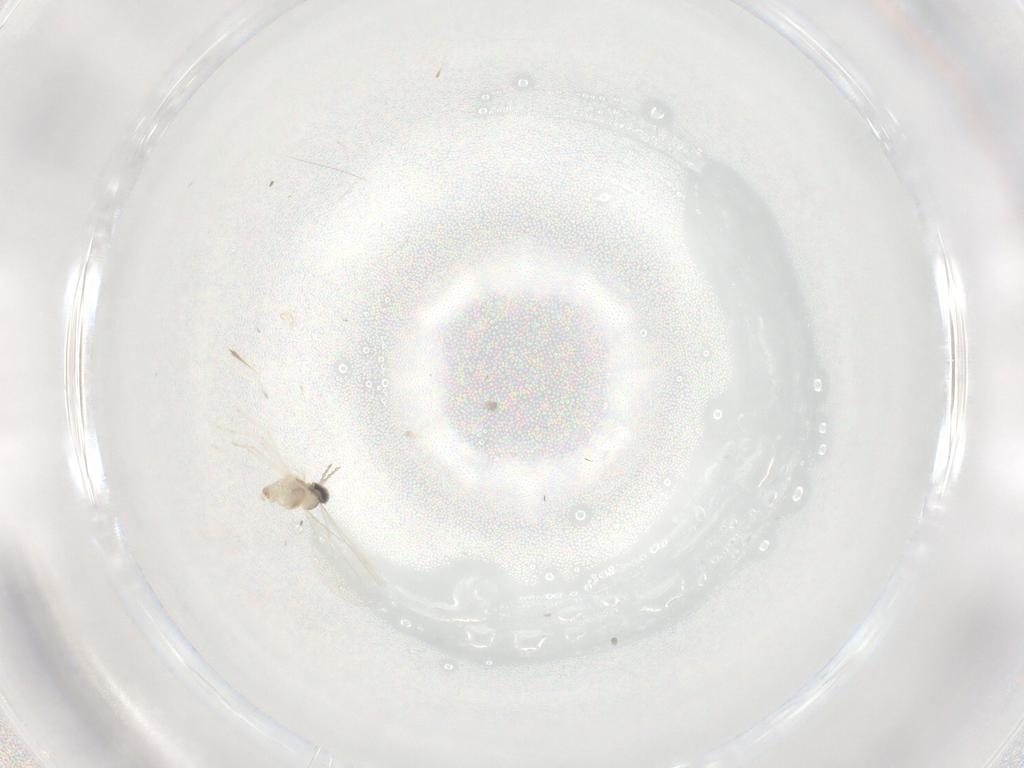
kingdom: Animalia
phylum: Arthropoda
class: Insecta
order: Diptera
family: Cecidomyiidae
